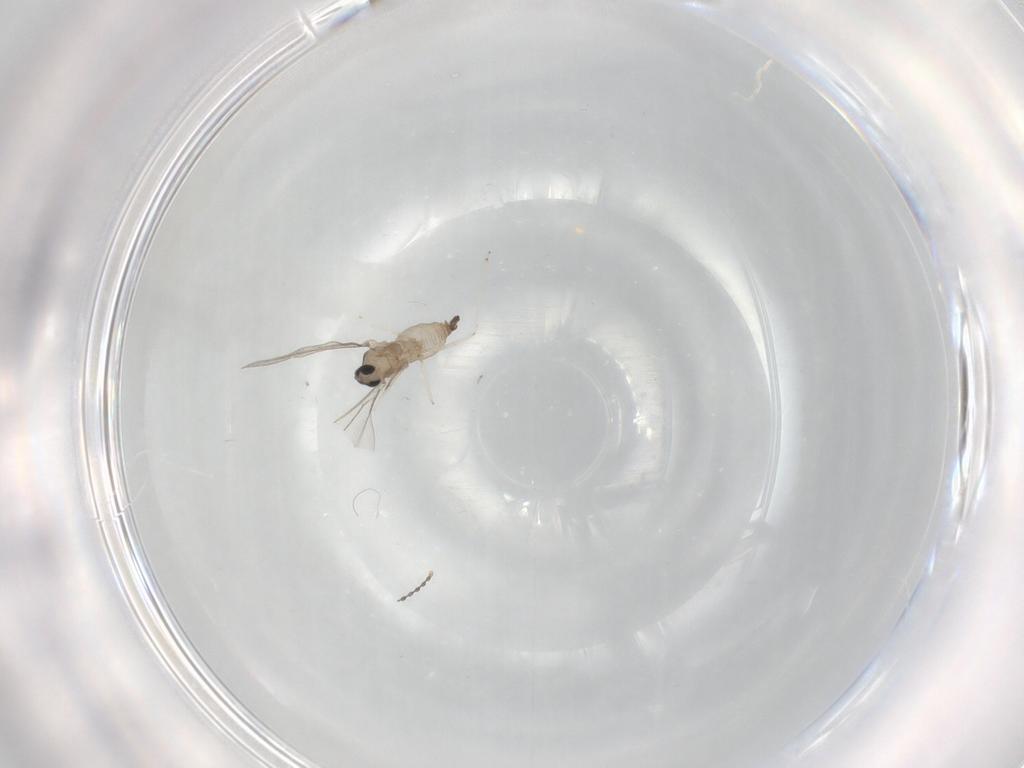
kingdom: Animalia
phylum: Arthropoda
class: Insecta
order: Diptera
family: Cecidomyiidae
